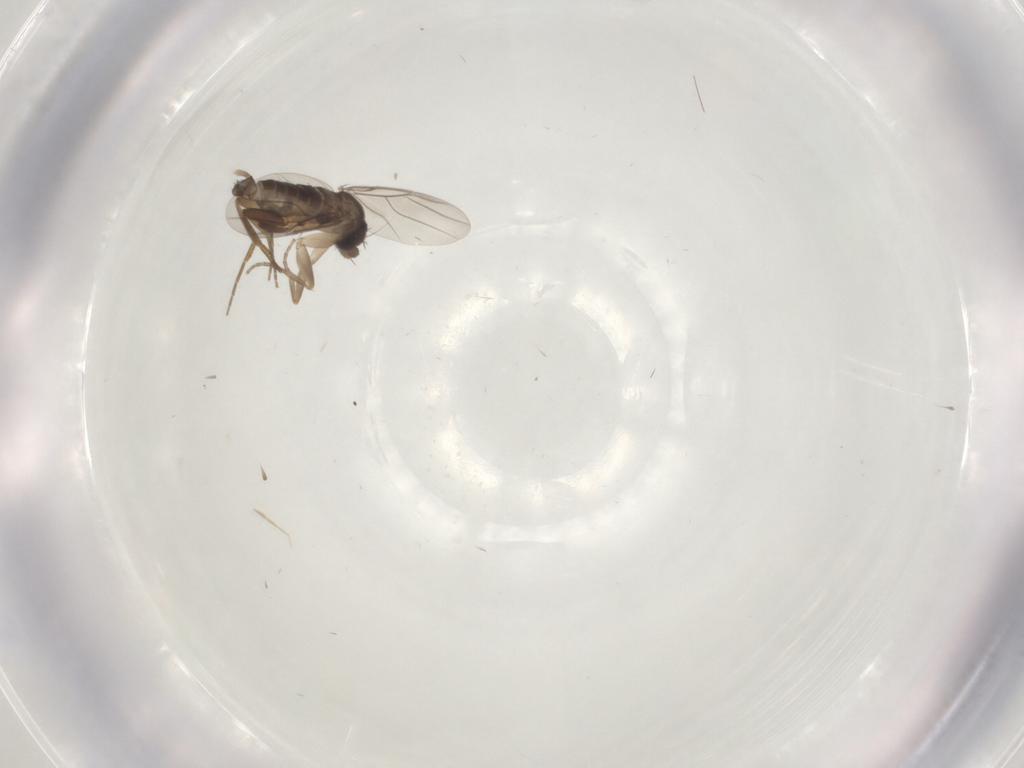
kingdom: Animalia
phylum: Arthropoda
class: Insecta
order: Diptera
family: Phoridae
